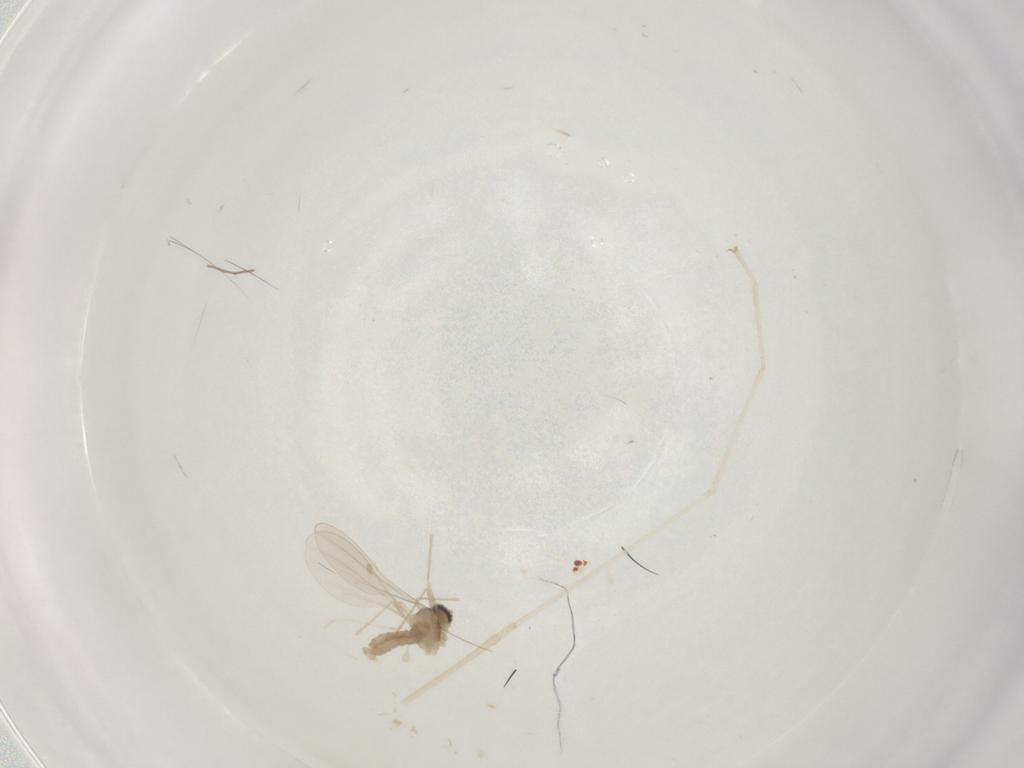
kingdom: Animalia
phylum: Arthropoda
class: Insecta
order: Diptera
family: Cecidomyiidae
